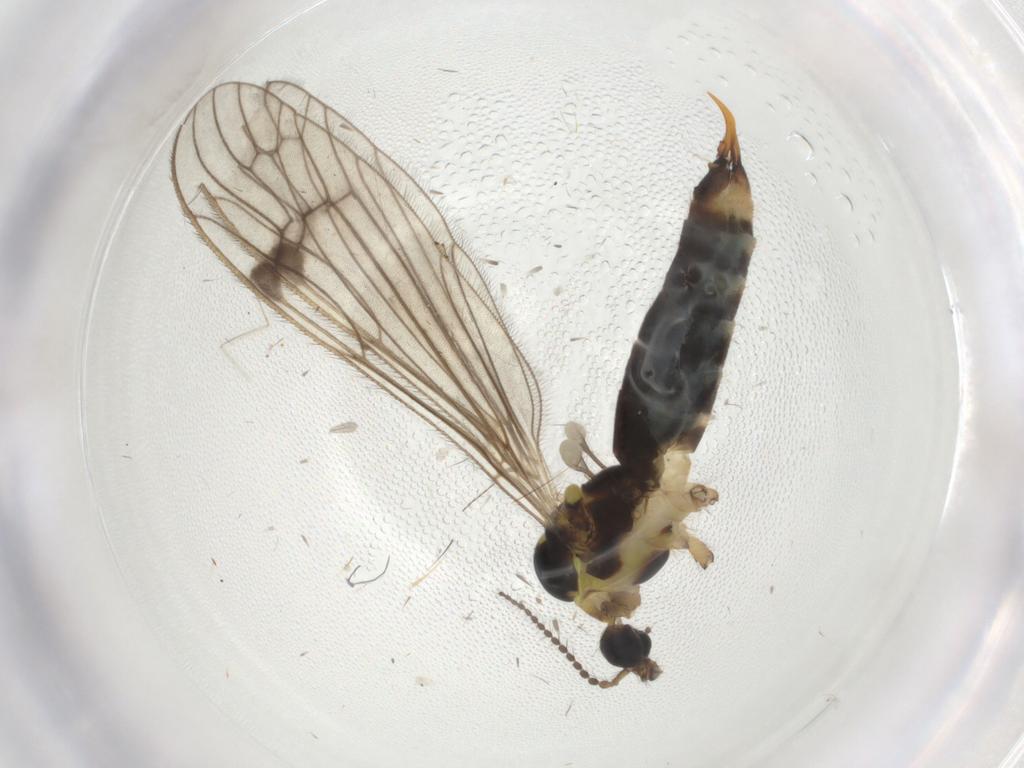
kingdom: Animalia
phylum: Arthropoda
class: Insecta
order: Diptera
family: Limoniidae
